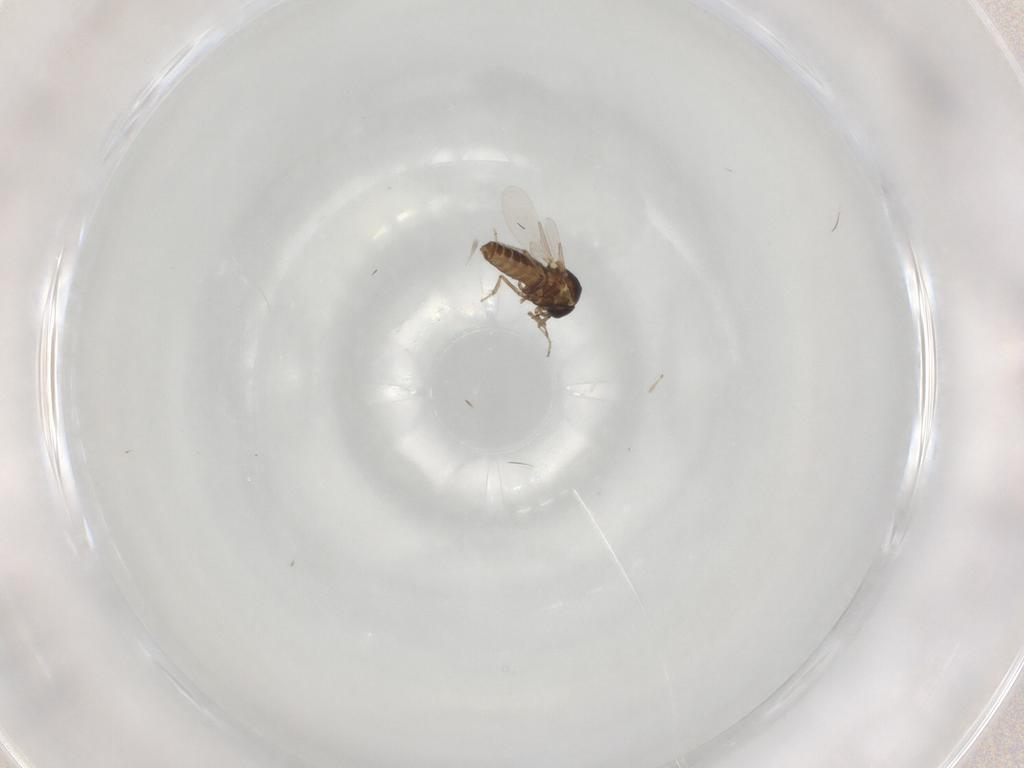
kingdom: Animalia
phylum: Arthropoda
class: Insecta
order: Diptera
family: Ceratopogonidae
